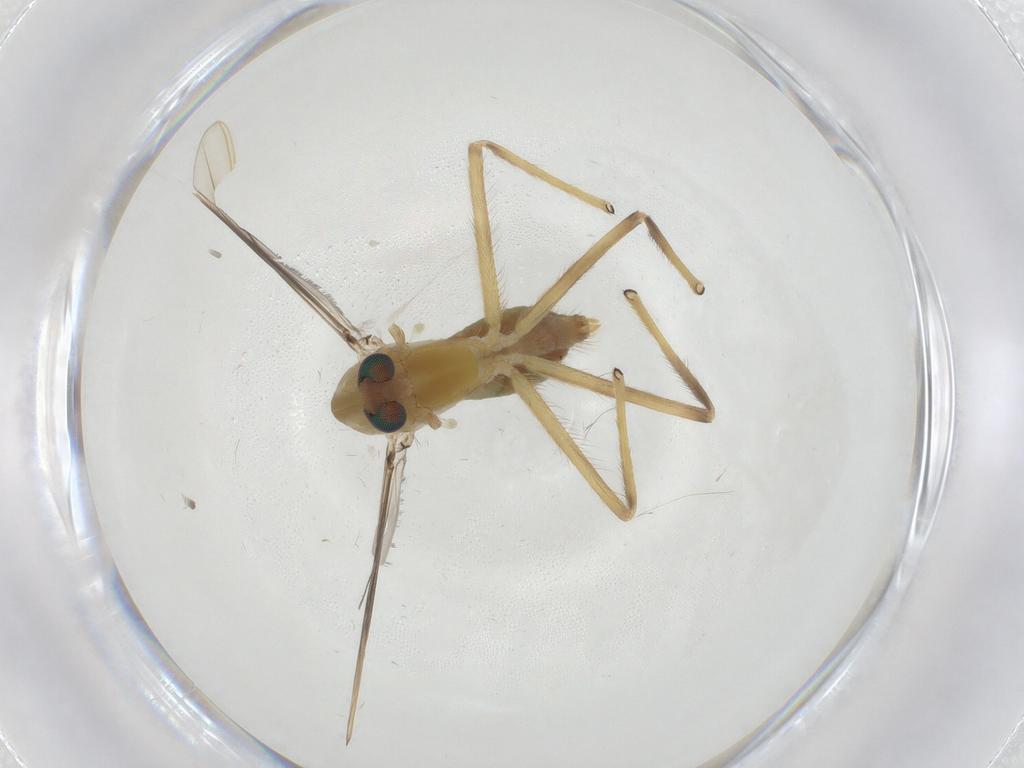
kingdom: Animalia
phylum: Arthropoda
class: Insecta
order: Diptera
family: Chironomidae
